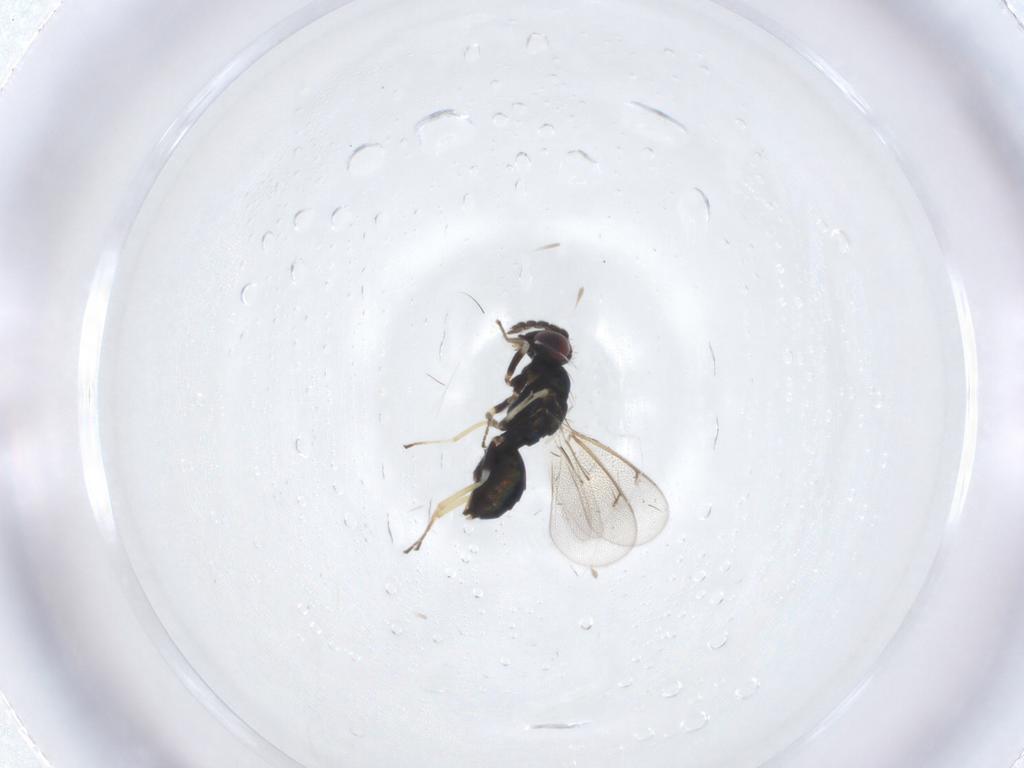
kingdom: Animalia
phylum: Arthropoda
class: Insecta
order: Hymenoptera
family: Eulophidae
